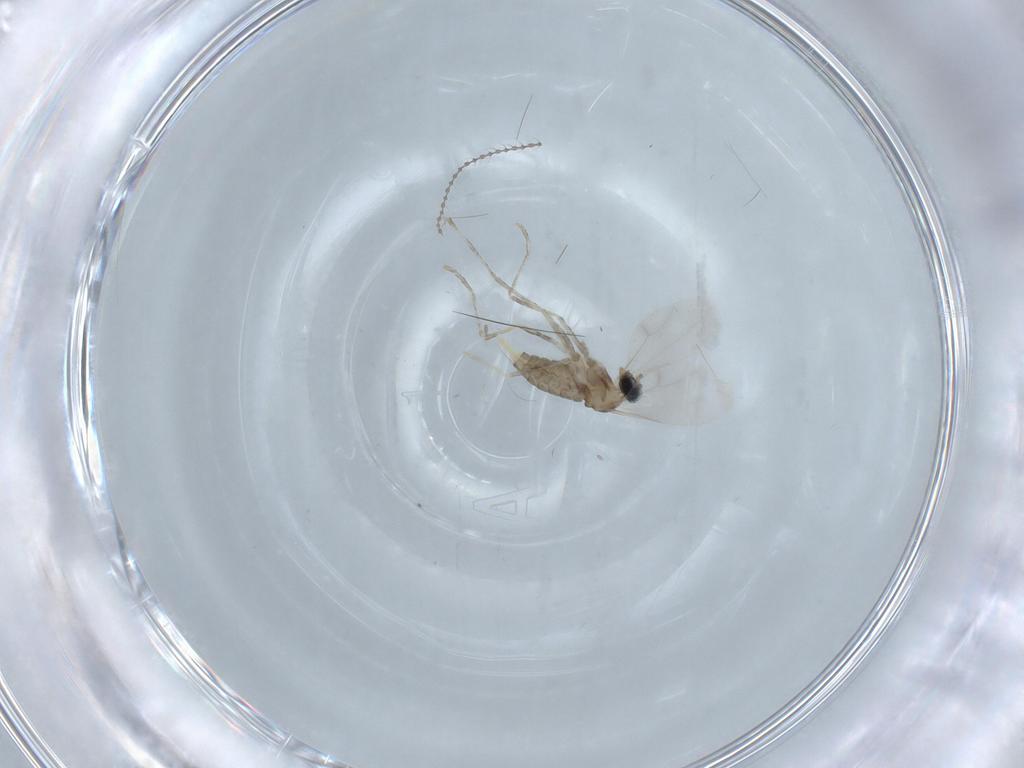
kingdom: Animalia
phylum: Arthropoda
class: Insecta
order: Diptera
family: Cecidomyiidae
